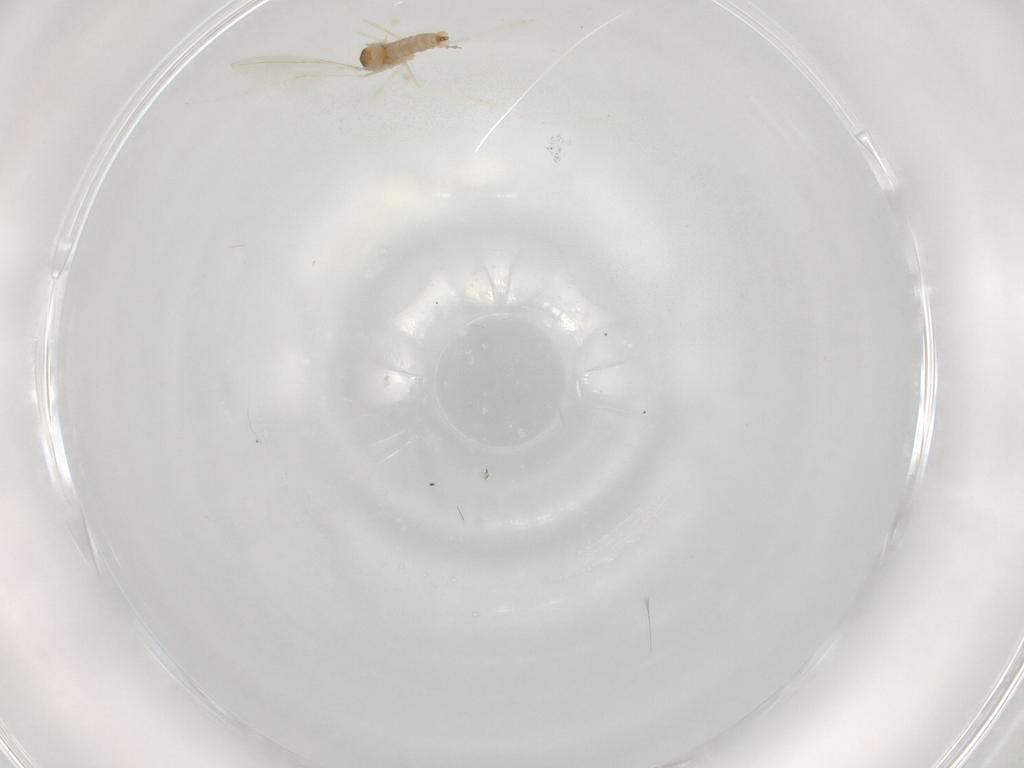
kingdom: Animalia
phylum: Arthropoda
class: Insecta
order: Diptera
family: Cecidomyiidae
